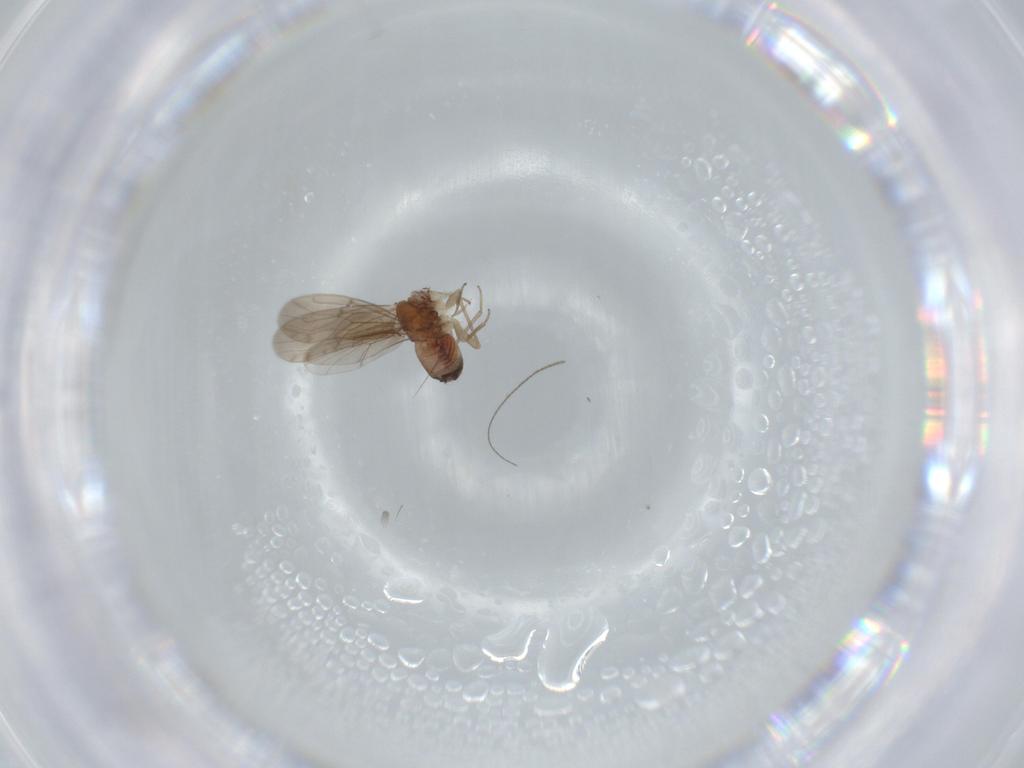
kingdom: Animalia
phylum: Arthropoda
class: Insecta
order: Psocodea
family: Ectopsocidae
